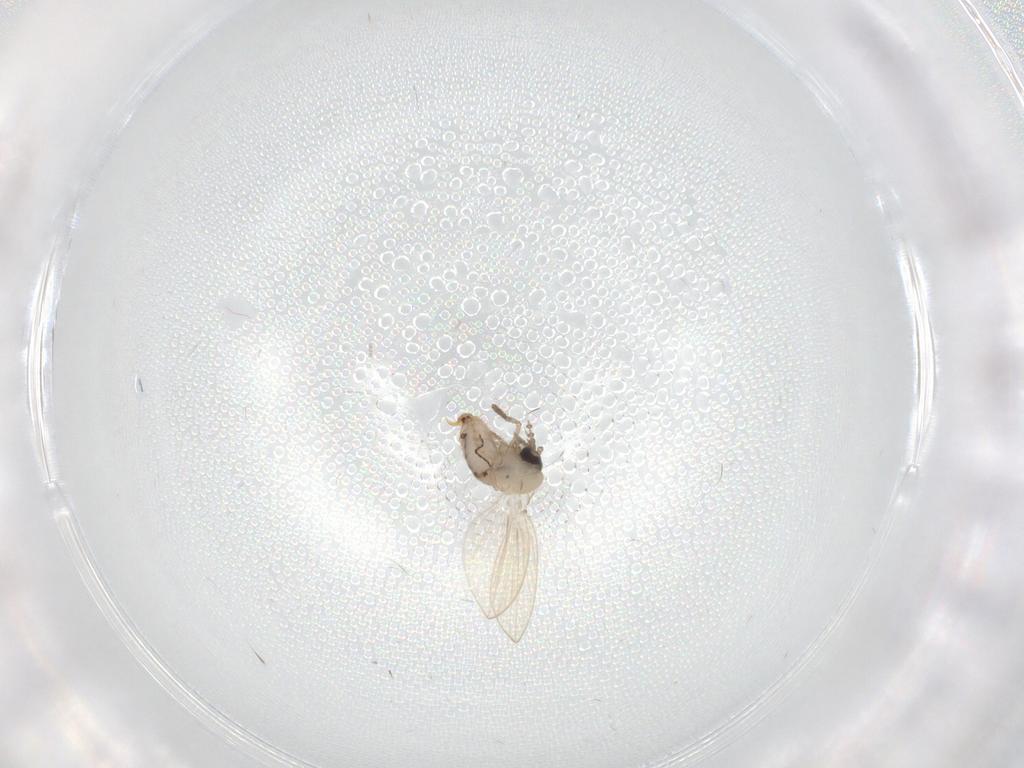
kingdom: Animalia
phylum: Arthropoda
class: Insecta
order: Diptera
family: Psychodidae
